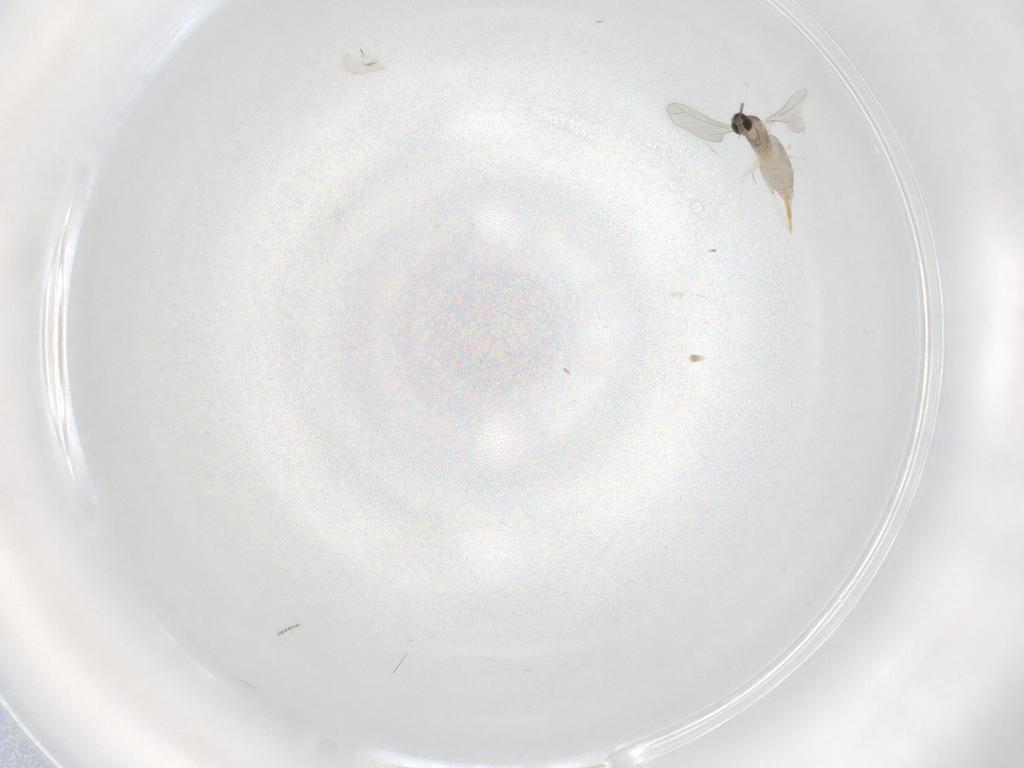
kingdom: Animalia
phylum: Arthropoda
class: Insecta
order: Diptera
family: Cecidomyiidae
